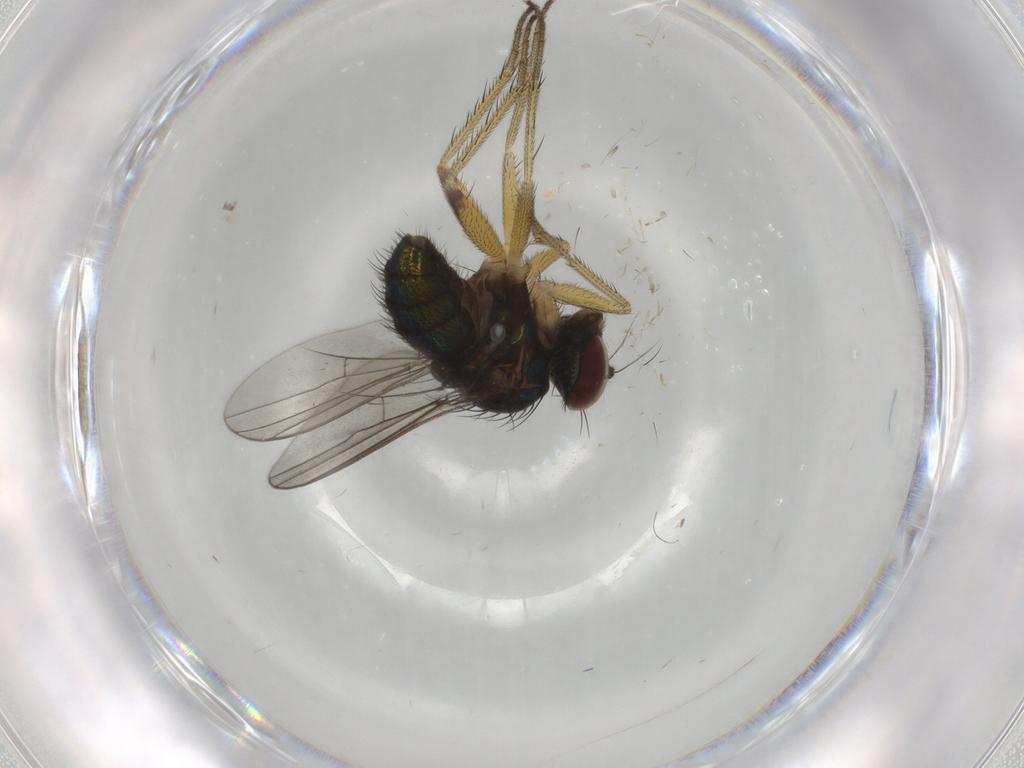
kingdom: Animalia
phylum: Arthropoda
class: Insecta
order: Diptera
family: Dolichopodidae
